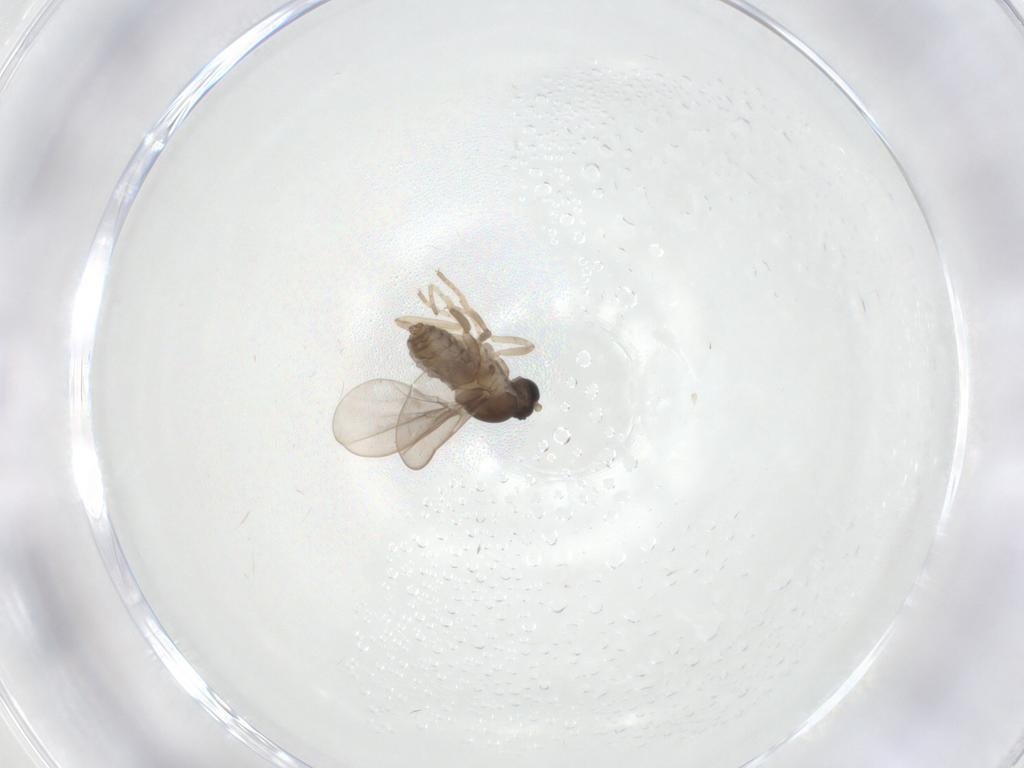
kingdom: Animalia
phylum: Arthropoda
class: Insecta
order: Diptera
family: Cecidomyiidae
